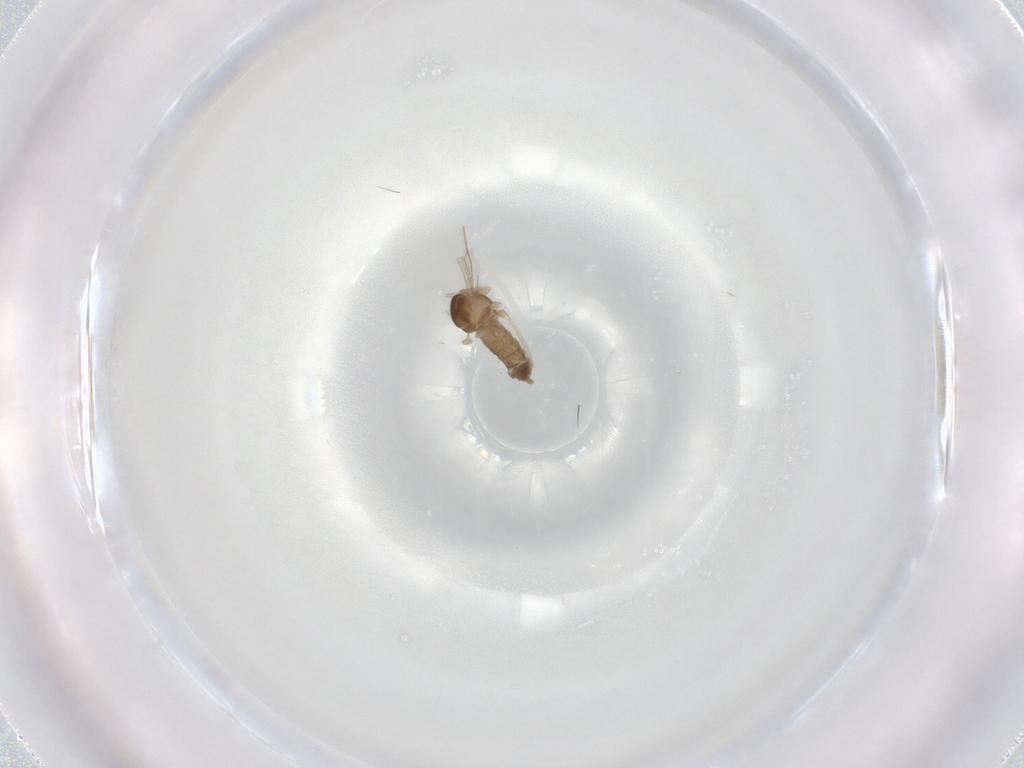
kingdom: Animalia
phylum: Arthropoda
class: Insecta
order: Diptera
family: Cecidomyiidae
